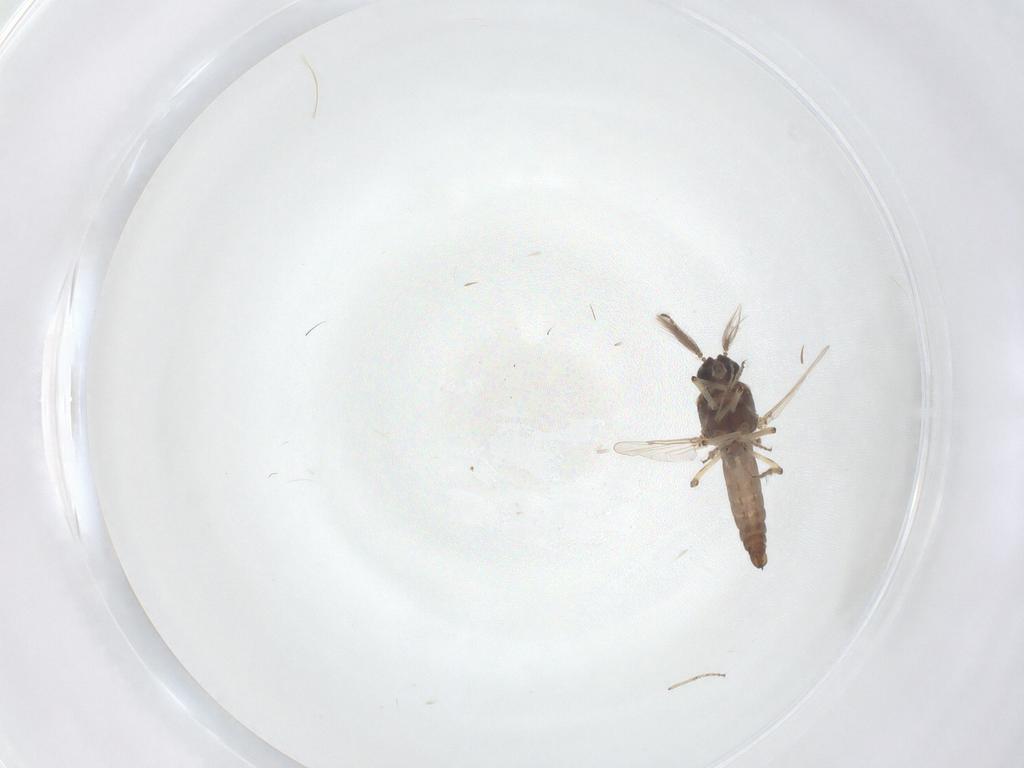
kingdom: Animalia
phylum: Arthropoda
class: Insecta
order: Diptera
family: Ceratopogonidae
